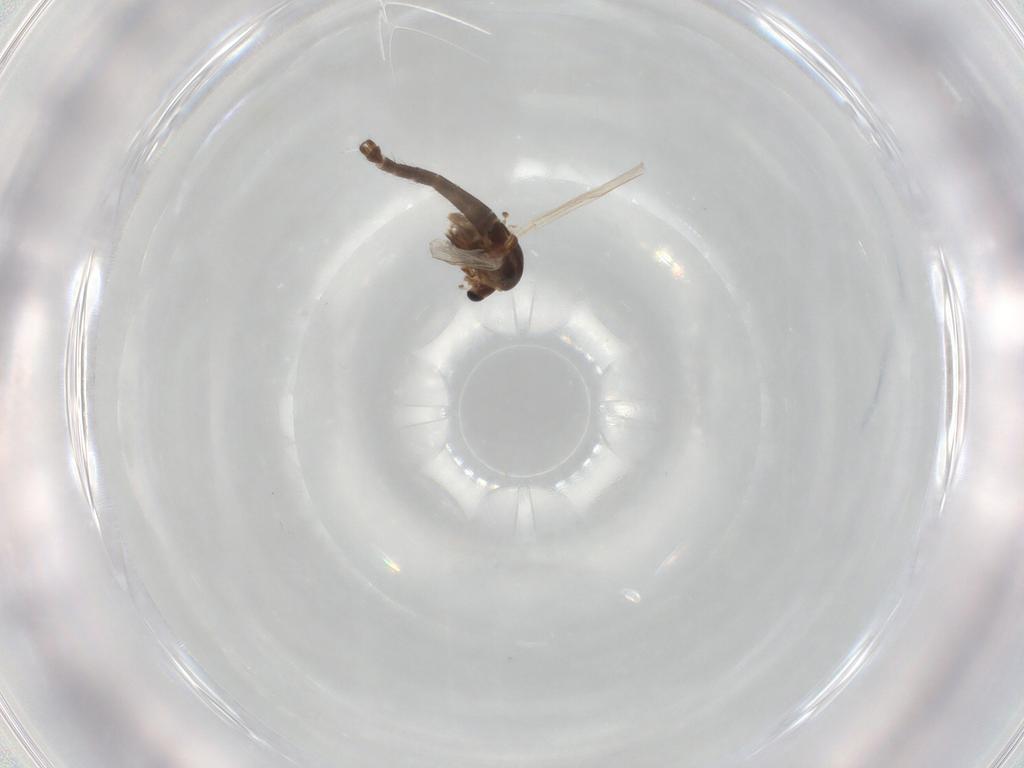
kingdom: Animalia
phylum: Arthropoda
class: Insecta
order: Diptera
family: Chironomidae
